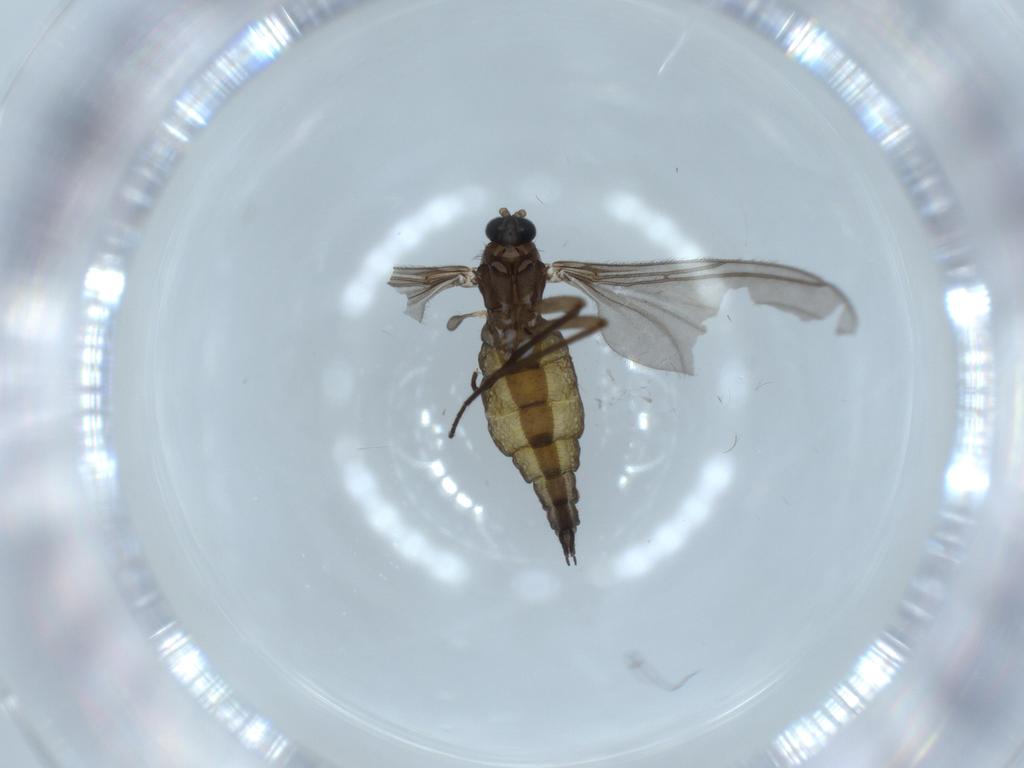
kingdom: Animalia
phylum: Arthropoda
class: Insecta
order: Diptera
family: Sciaridae
